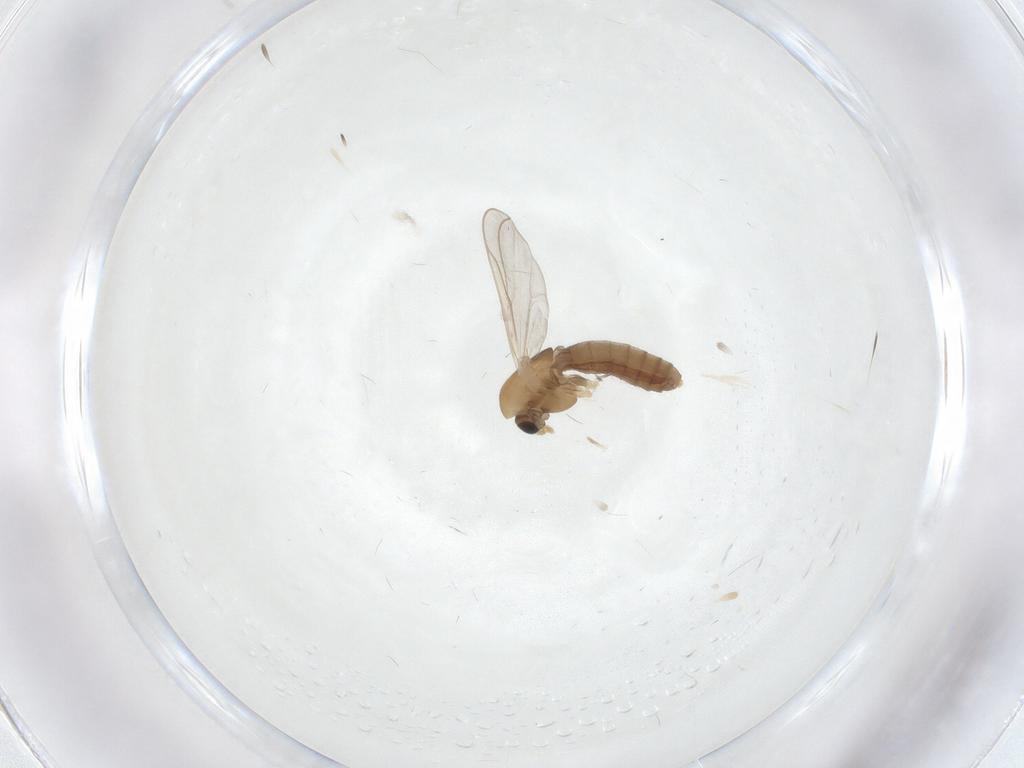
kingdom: Animalia
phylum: Arthropoda
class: Insecta
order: Diptera
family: Chironomidae
